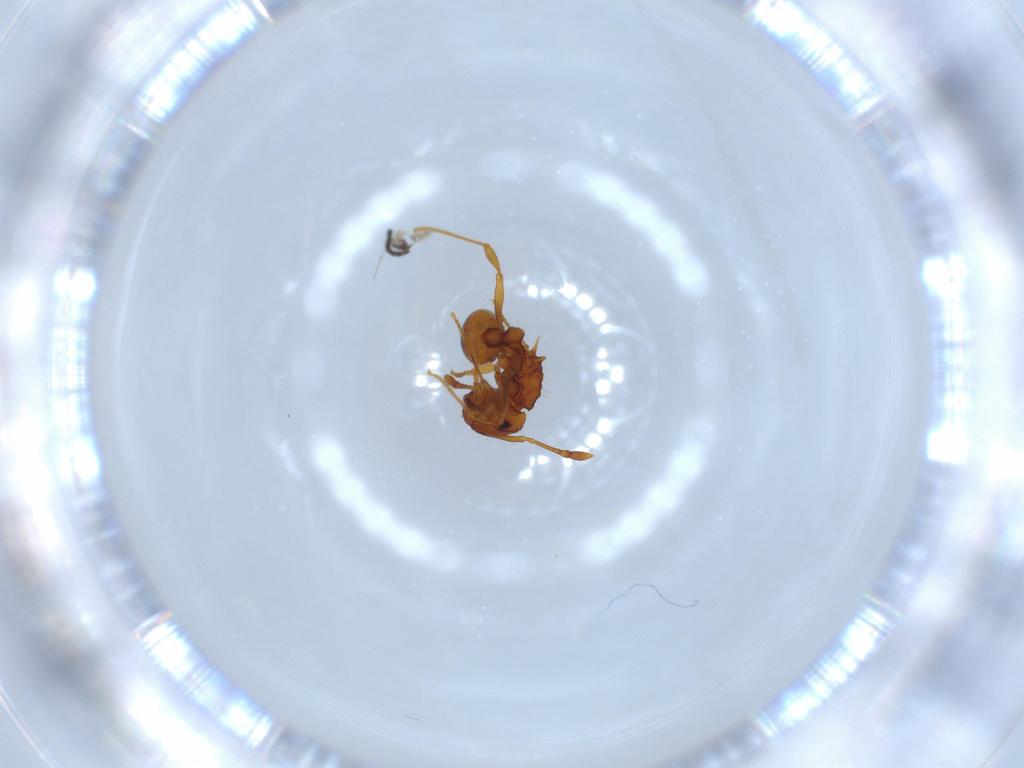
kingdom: Animalia
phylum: Arthropoda
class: Insecta
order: Hymenoptera
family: Formicidae
